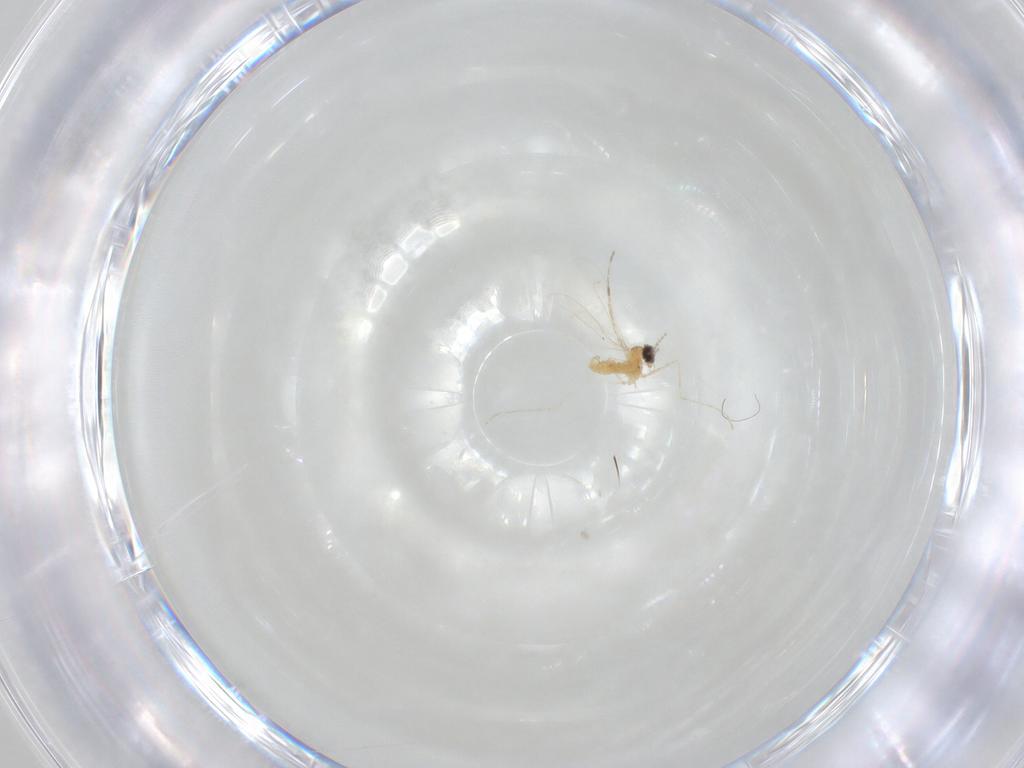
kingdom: Animalia
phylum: Arthropoda
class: Insecta
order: Diptera
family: Cecidomyiidae
